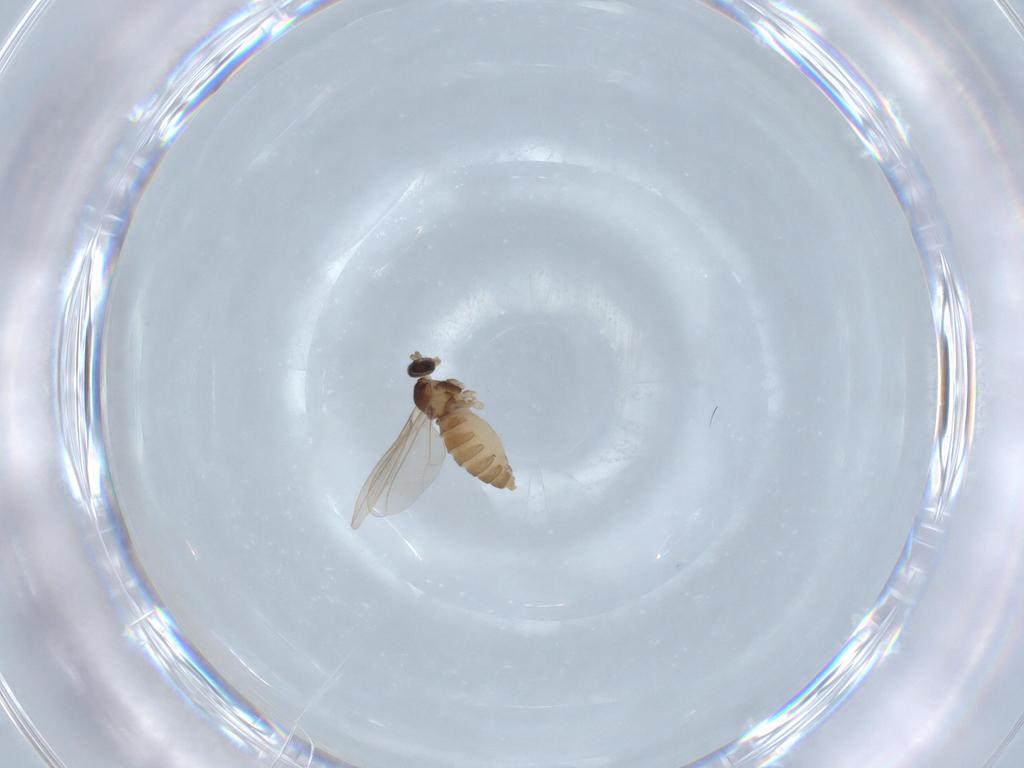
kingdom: Animalia
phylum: Arthropoda
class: Insecta
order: Diptera
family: Cecidomyiidae
